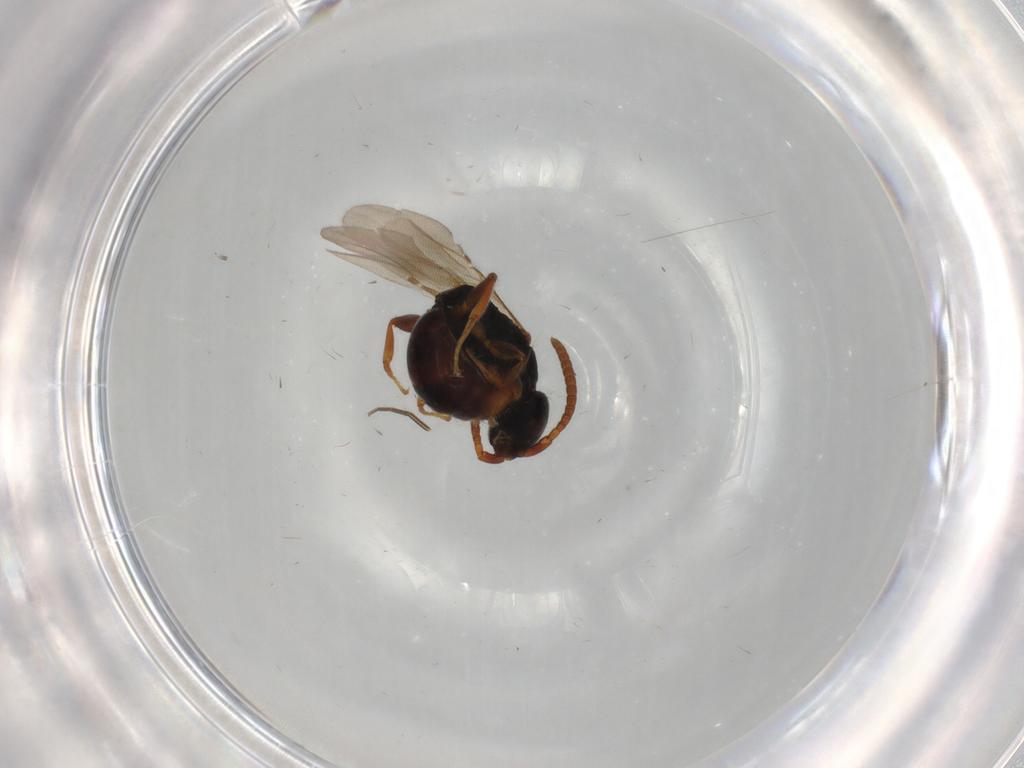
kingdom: Animalia
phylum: Arthropoda
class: Insecta
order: Hymenoptera
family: Bethylidae
